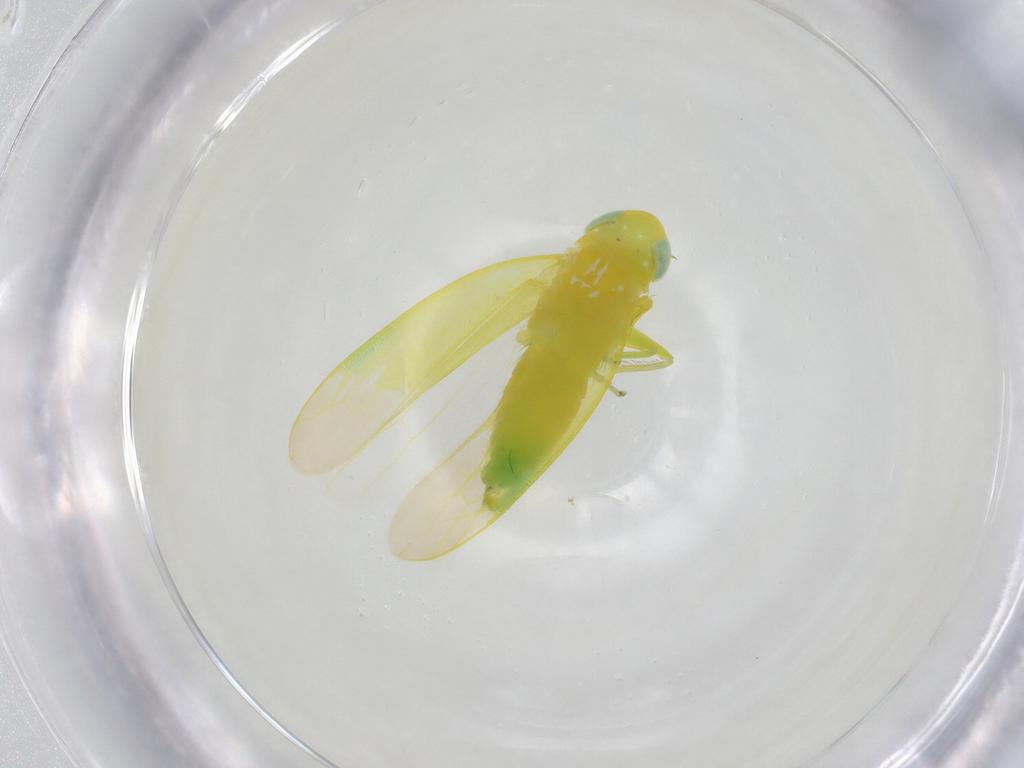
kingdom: Animalia
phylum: Arthropoda
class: Insecta
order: Hemiptera
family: Cicadellidae
